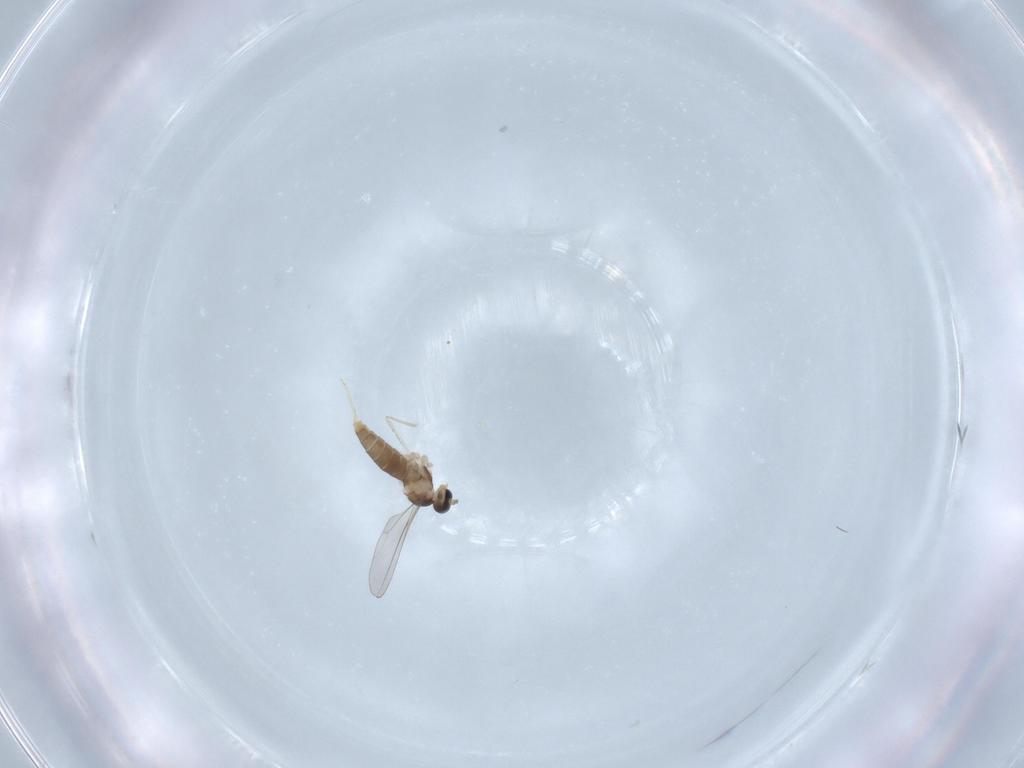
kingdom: Animalia
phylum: Arthropoda
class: Insecta
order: Diptera
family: Cecidomyiidae
